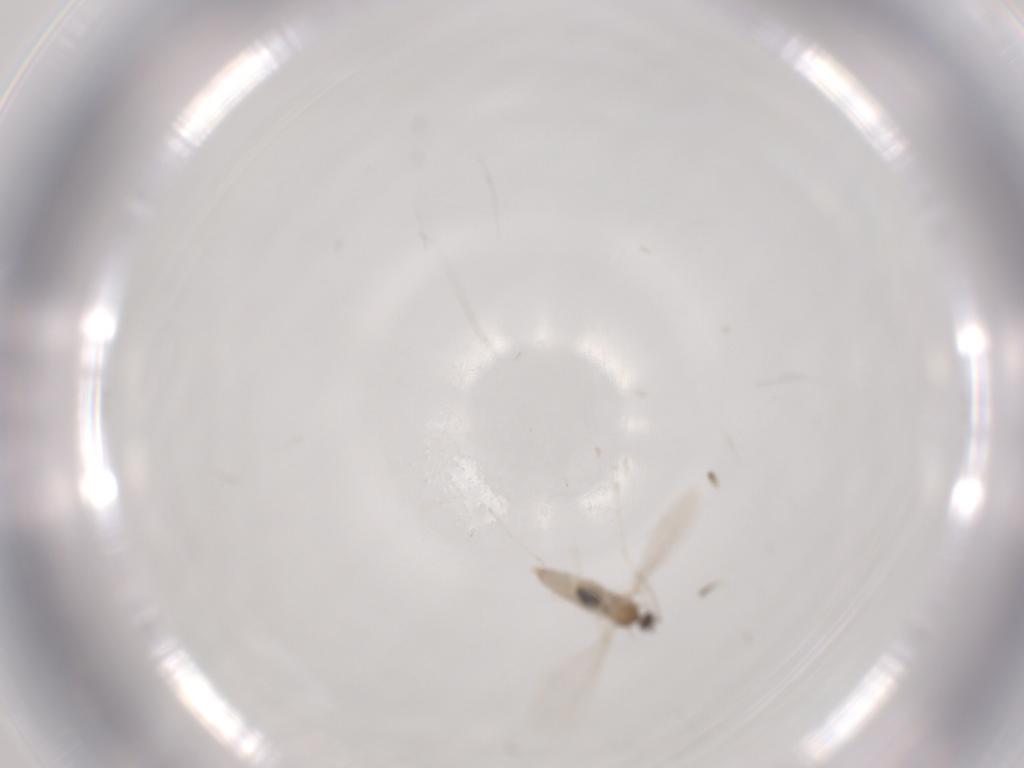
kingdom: Animalia
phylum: Arthropoda
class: Insecta
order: Diptera
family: Cecidomyiidae
